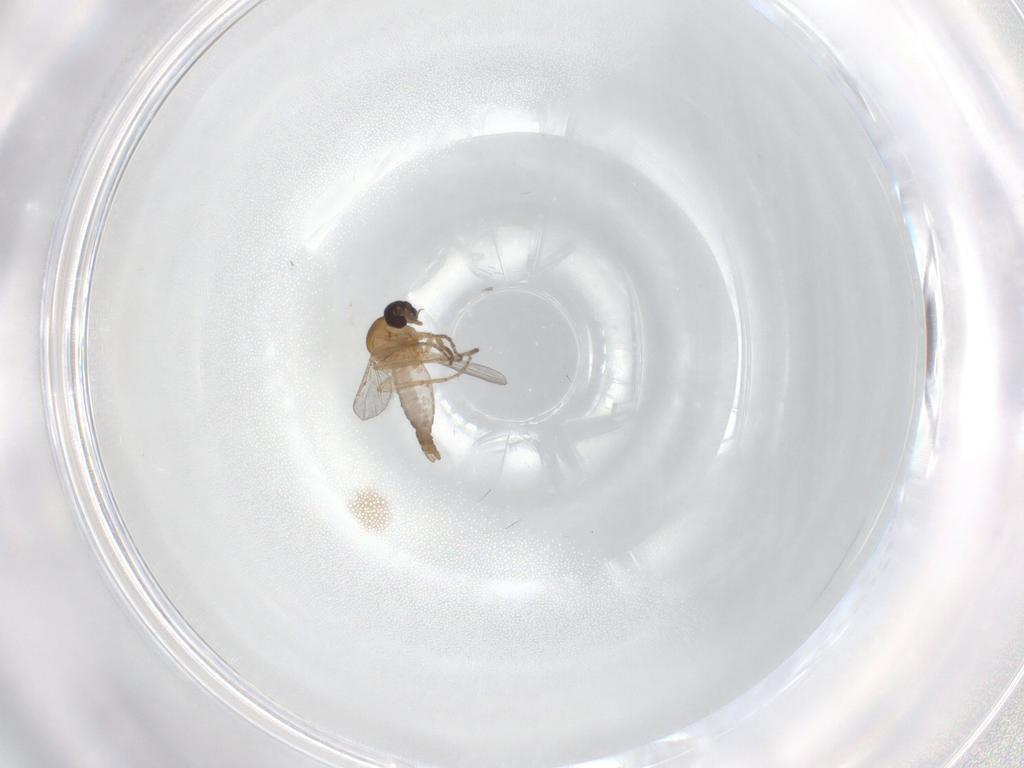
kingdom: Animalia
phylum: Arthropoda
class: Insecta
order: Diptera
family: Ceratopogonidae
